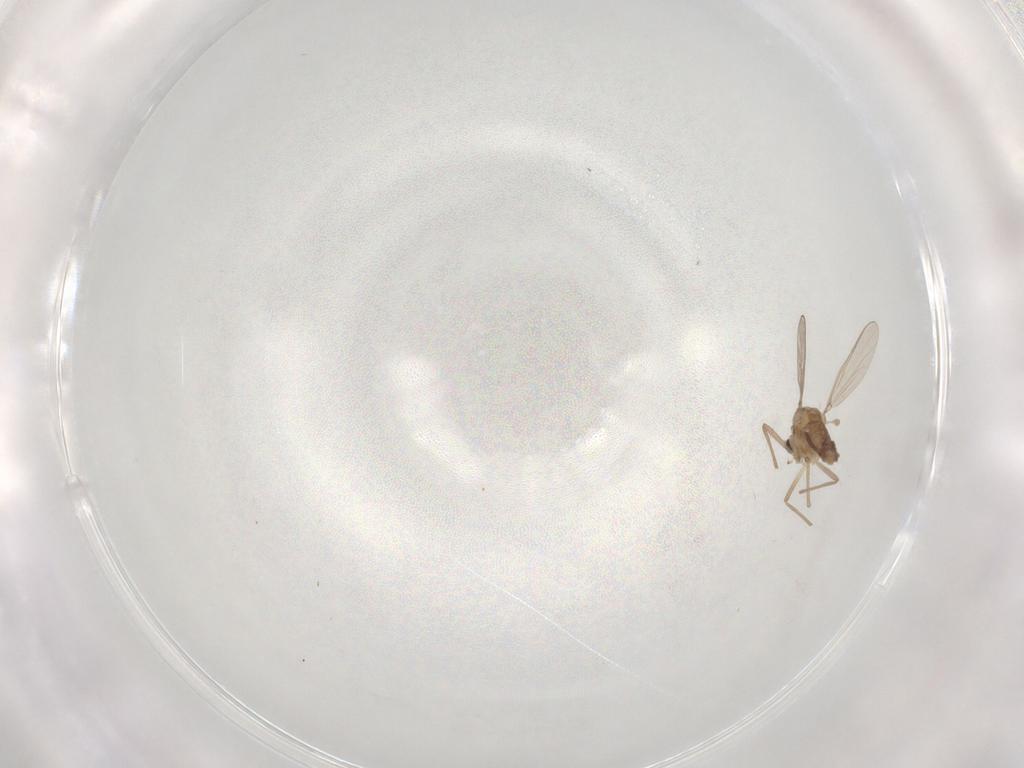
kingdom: Animalia
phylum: Arthropoda
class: Insecta
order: Diptera
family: Chironomidae
